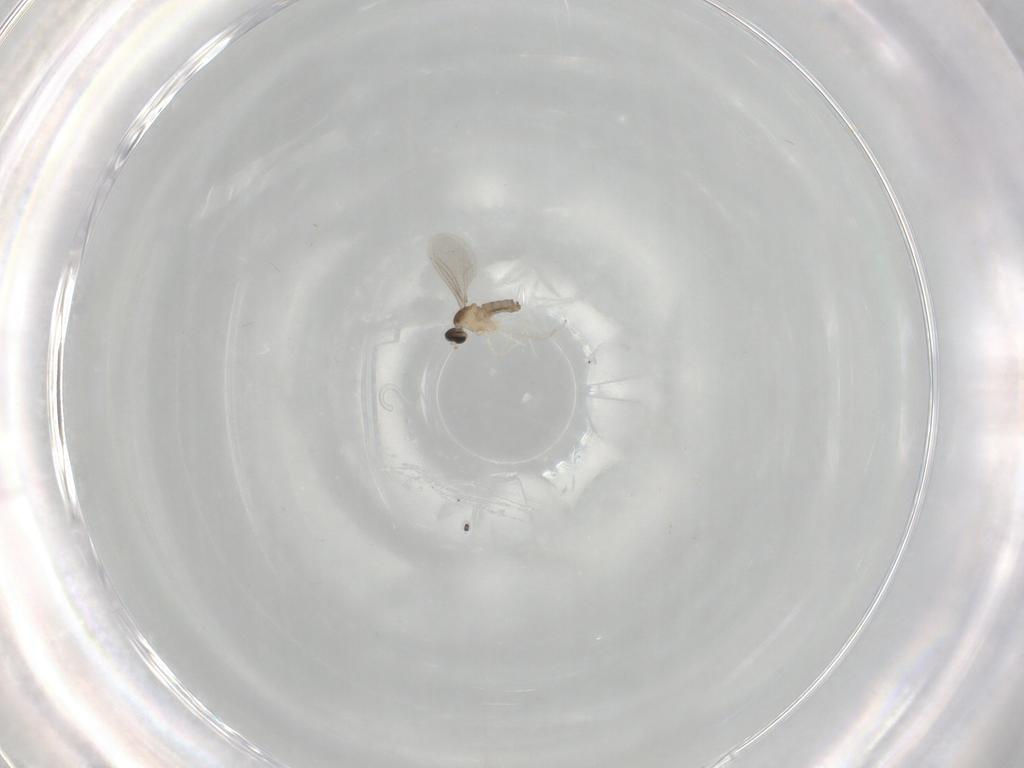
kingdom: Animalia
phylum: Arthropoda
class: Insecta
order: Diptera
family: Cecidomyiidae
